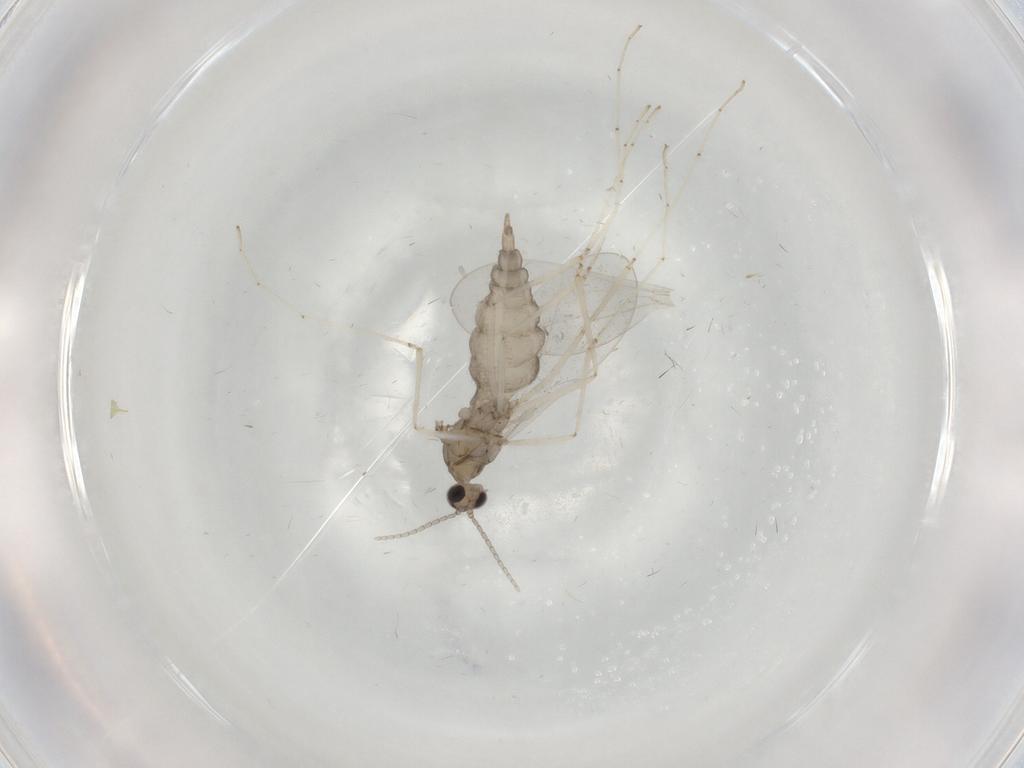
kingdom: Animalia
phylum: Arthropoda
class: Insecta
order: Diptera
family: Cecidomyiidae
